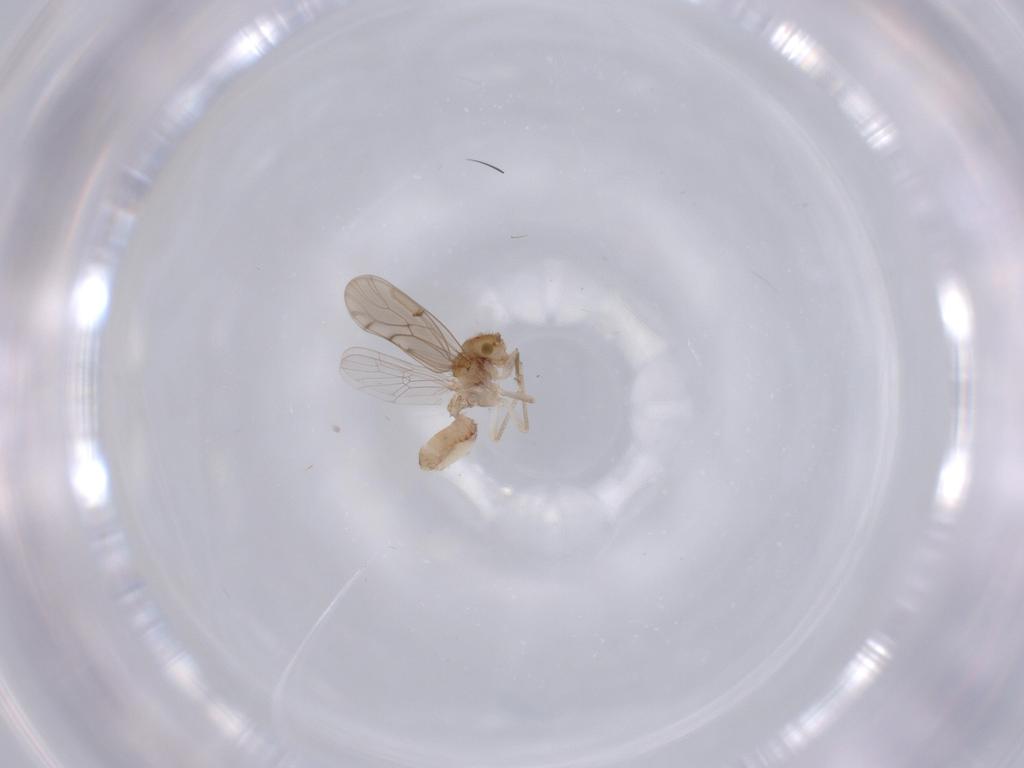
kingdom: Animalia
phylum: Arthropoda
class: Insecta
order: Psocodea
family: Ectopsocidae
